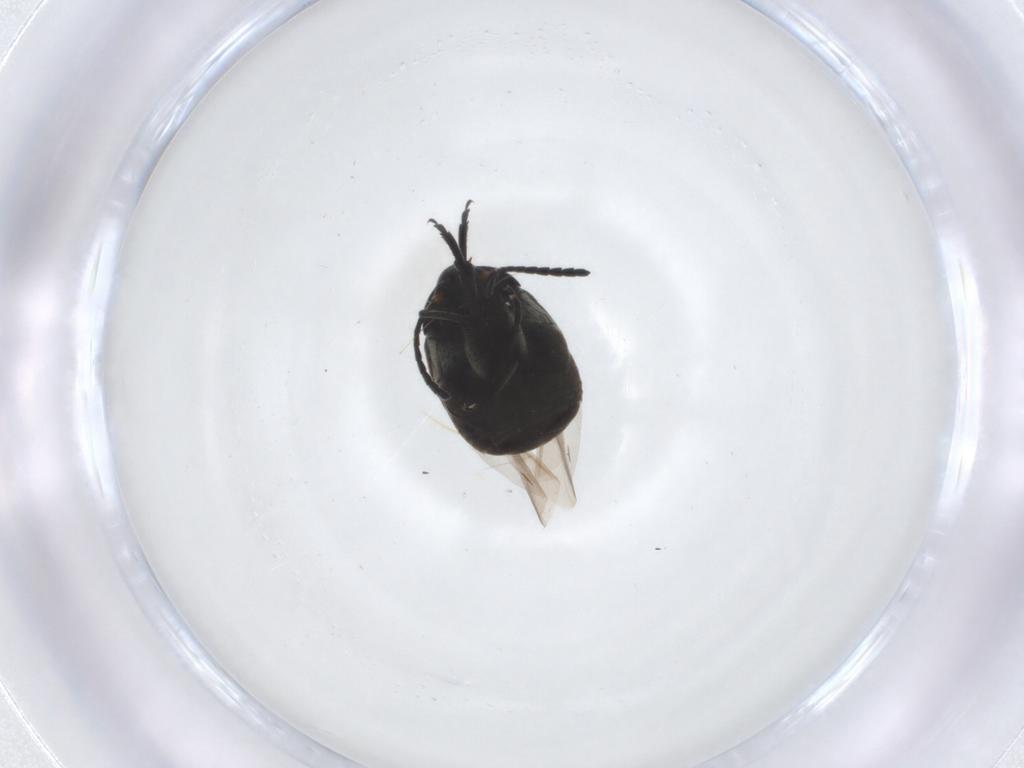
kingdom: Animalia
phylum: Arthropoda
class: Insecta
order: Coleoptera
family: Chrysomelidae
